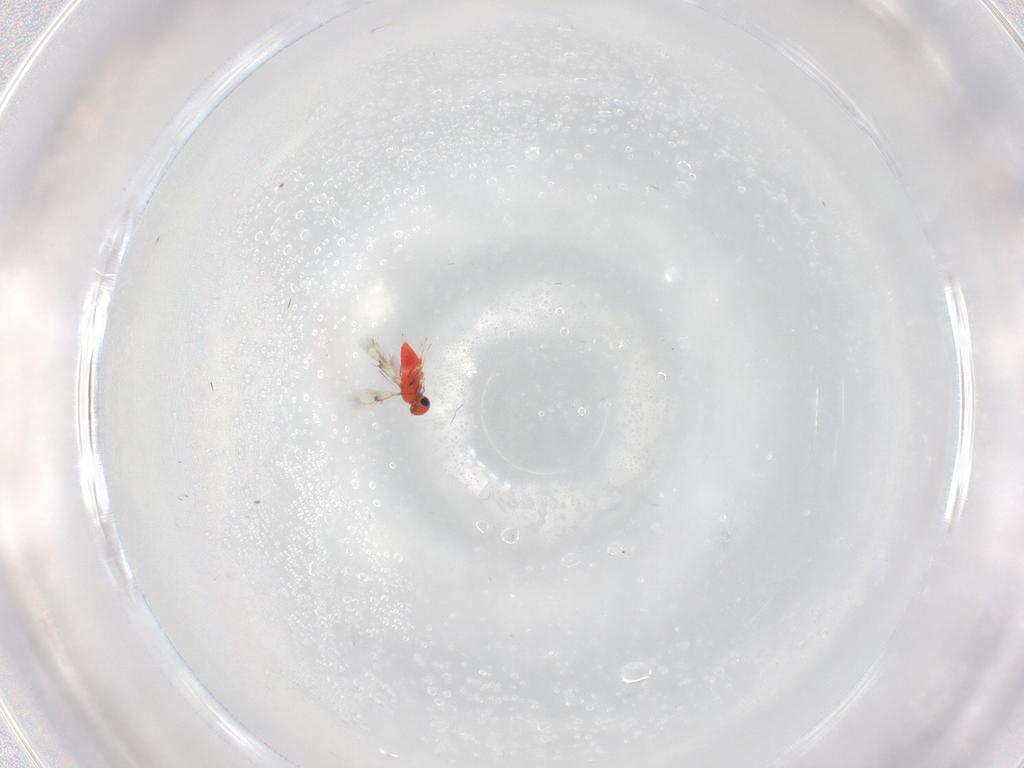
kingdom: Animalia
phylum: Arthropoda
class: Insecta
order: Hymenoptera
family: Trichogrammatidae
